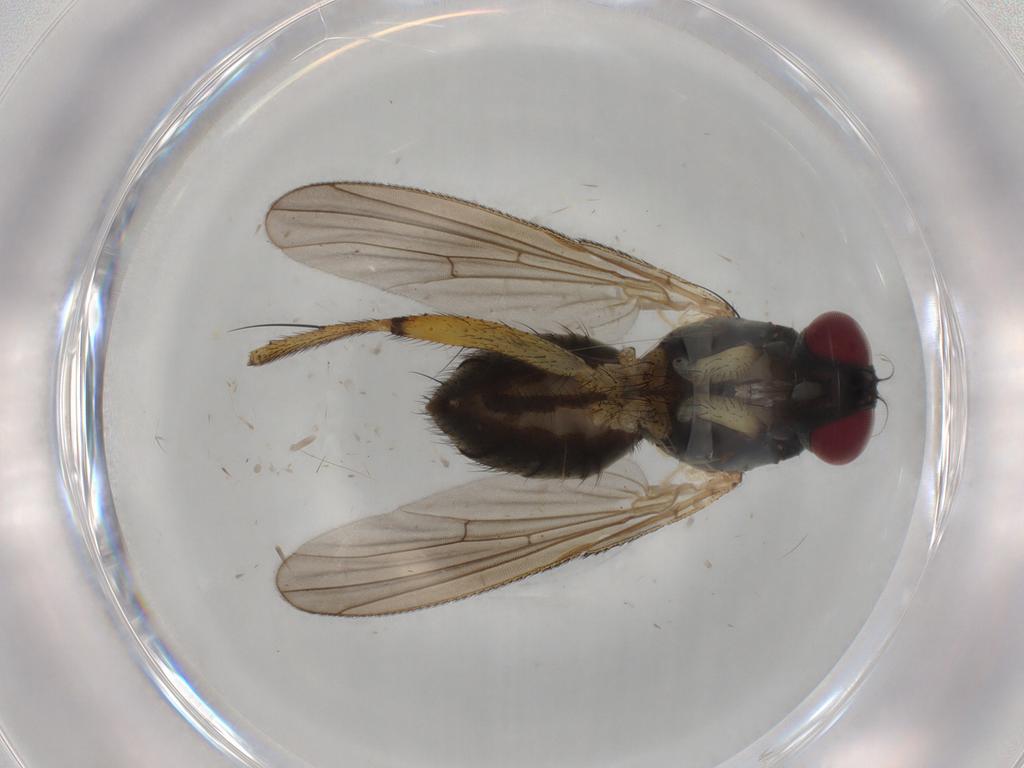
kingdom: Animalia
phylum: Arthropoda
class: Insecta
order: Diptera
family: Muscidae
